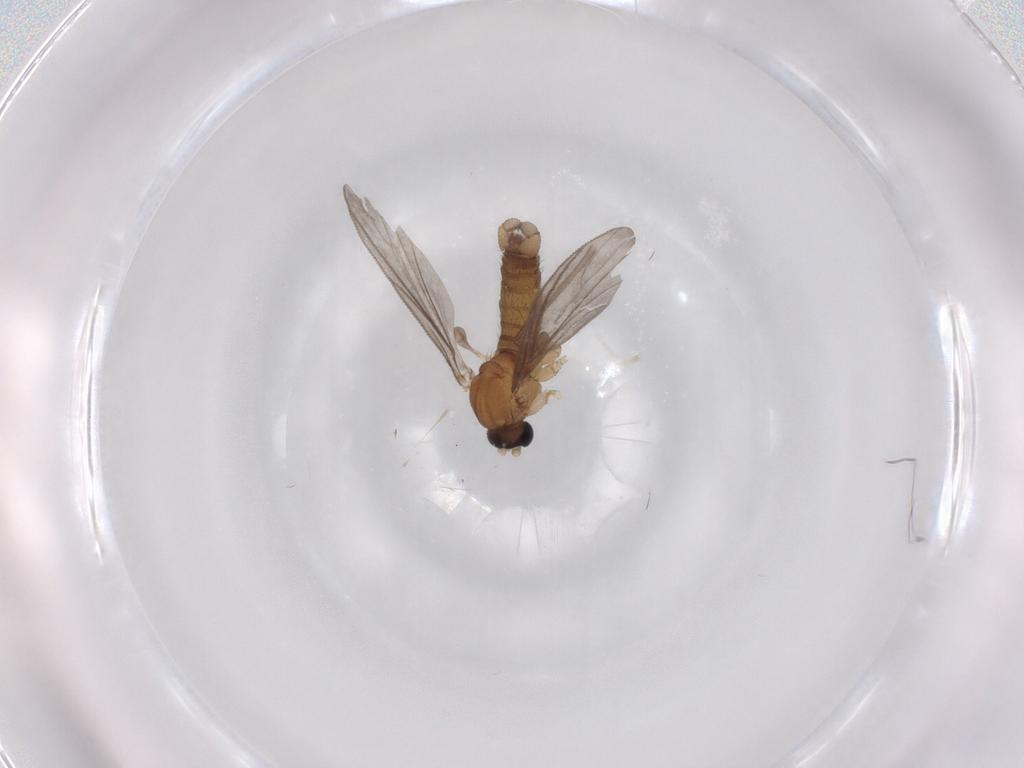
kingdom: Animalia
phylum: Arthropoda
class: Insecta
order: Diptera
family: Sciaridae
